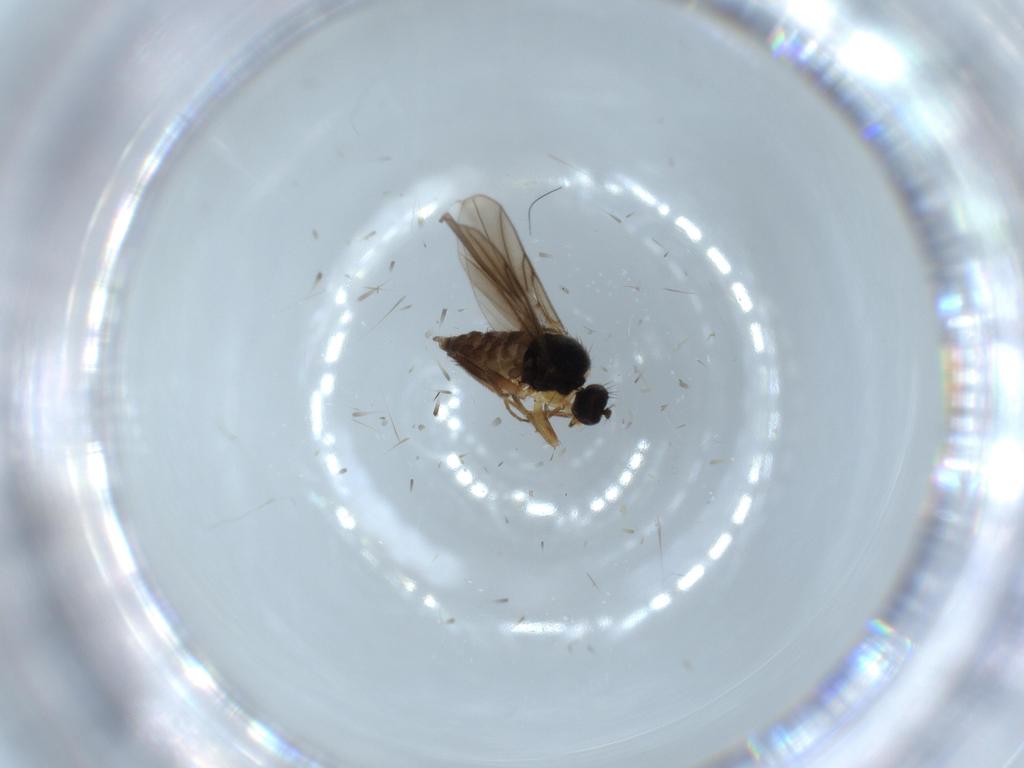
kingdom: Animalia
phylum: Arthropoda
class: Insecta
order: Diptera
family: Hybotidae
